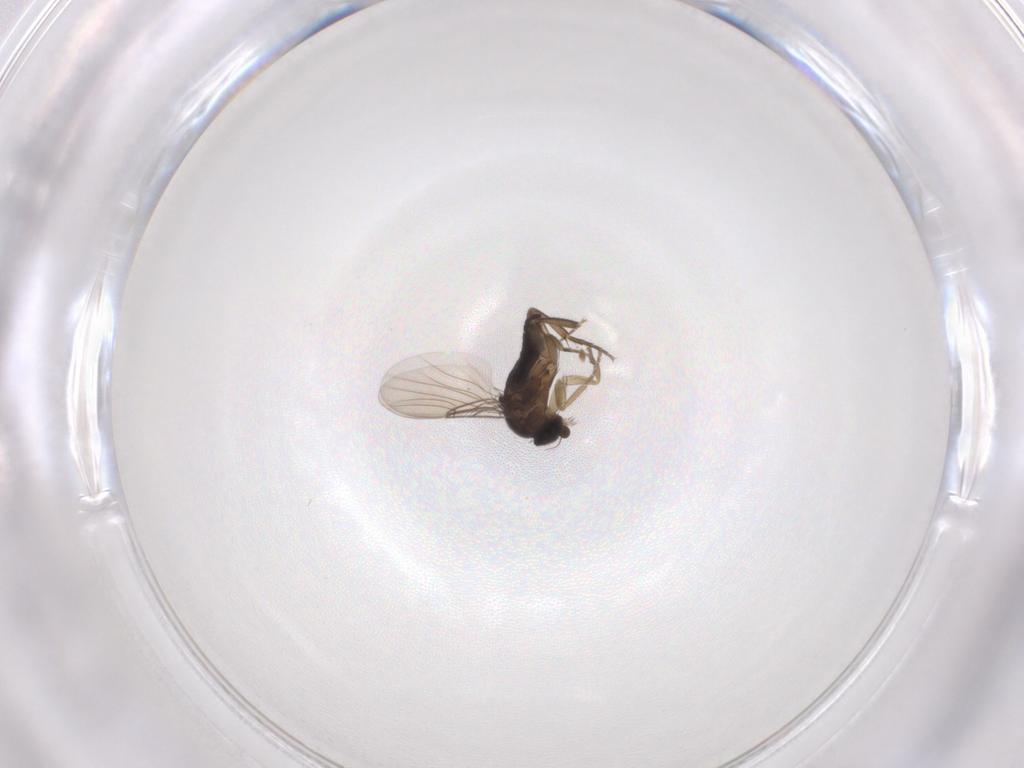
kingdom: Animalia
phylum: Arthropoda
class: Insecta
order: Diptera
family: Phoridae
